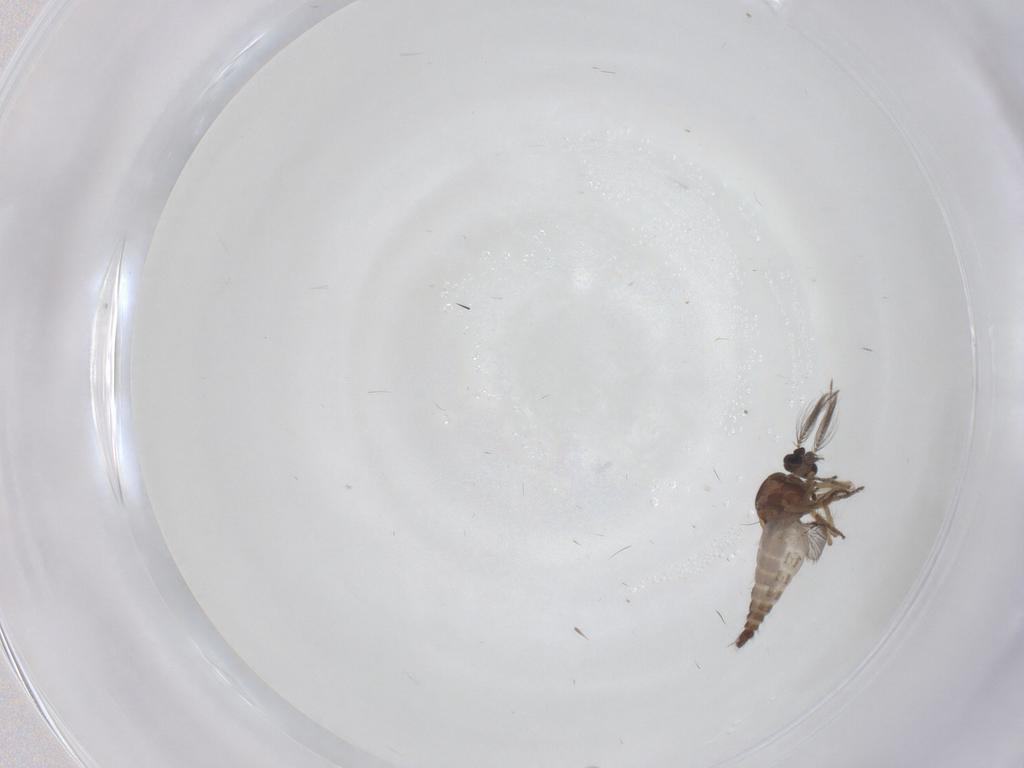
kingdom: Animalia
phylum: Arthropoda
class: Insecta
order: Diptera
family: Ceratopogonidae
